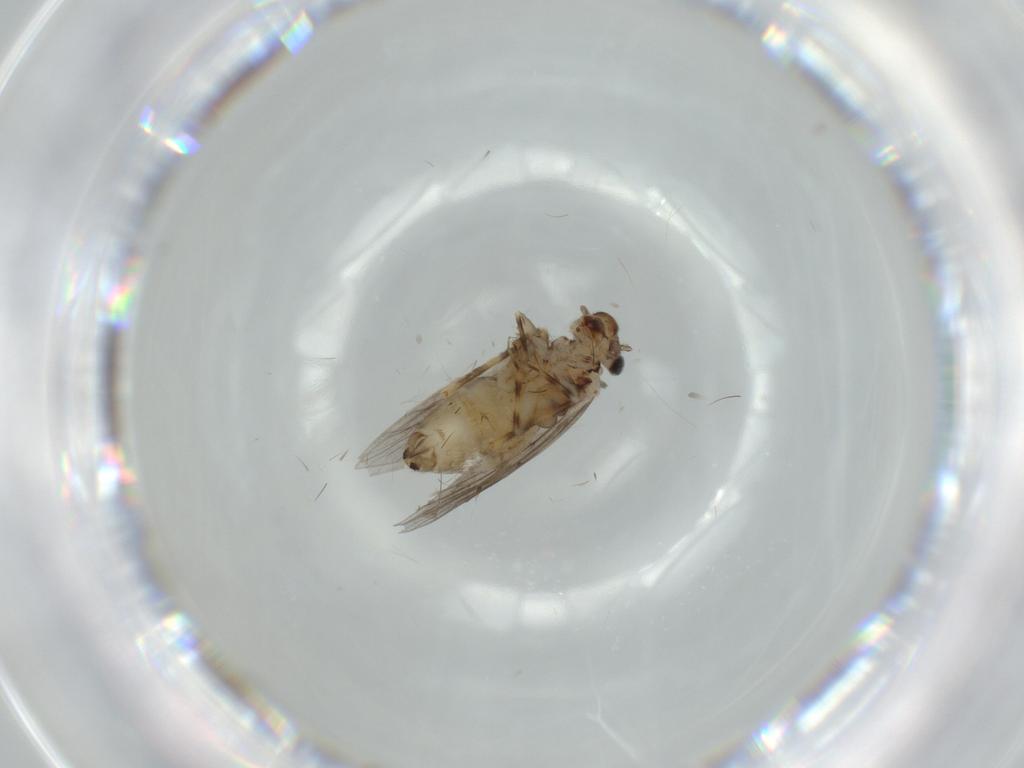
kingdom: Animalia
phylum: Arthropoda
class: Insecta
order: Psocodea
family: Lepidopsocidae
